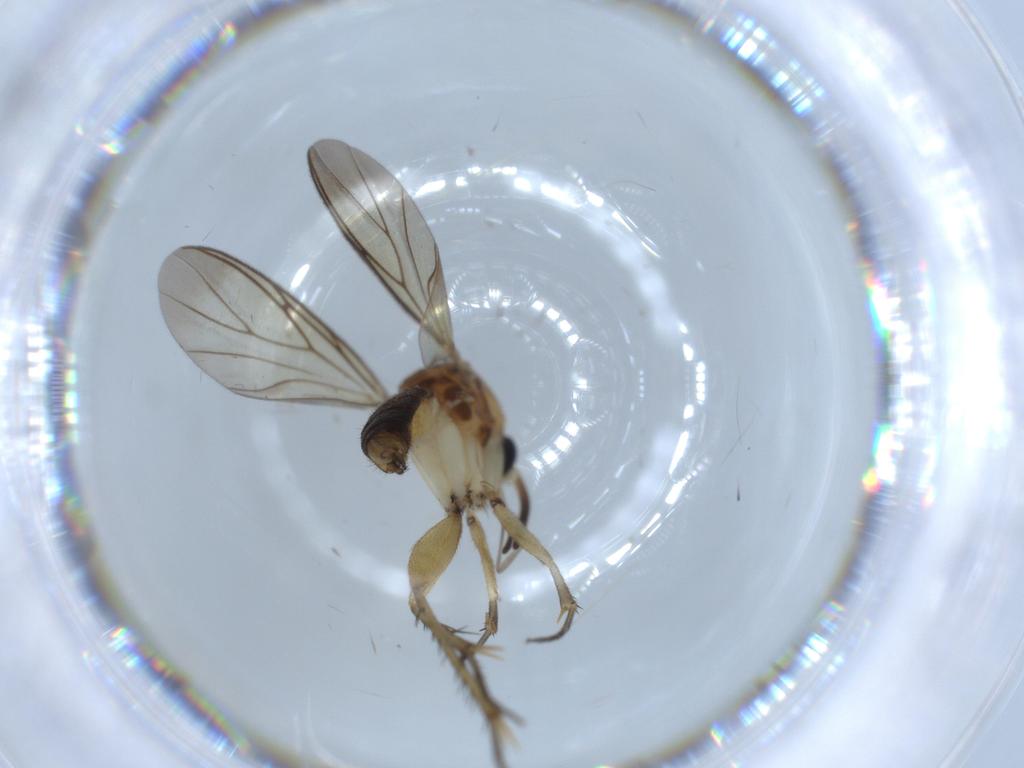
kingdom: Animalia
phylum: Arthropoda
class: Insecta
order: Diptera
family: Mycetophilidae
